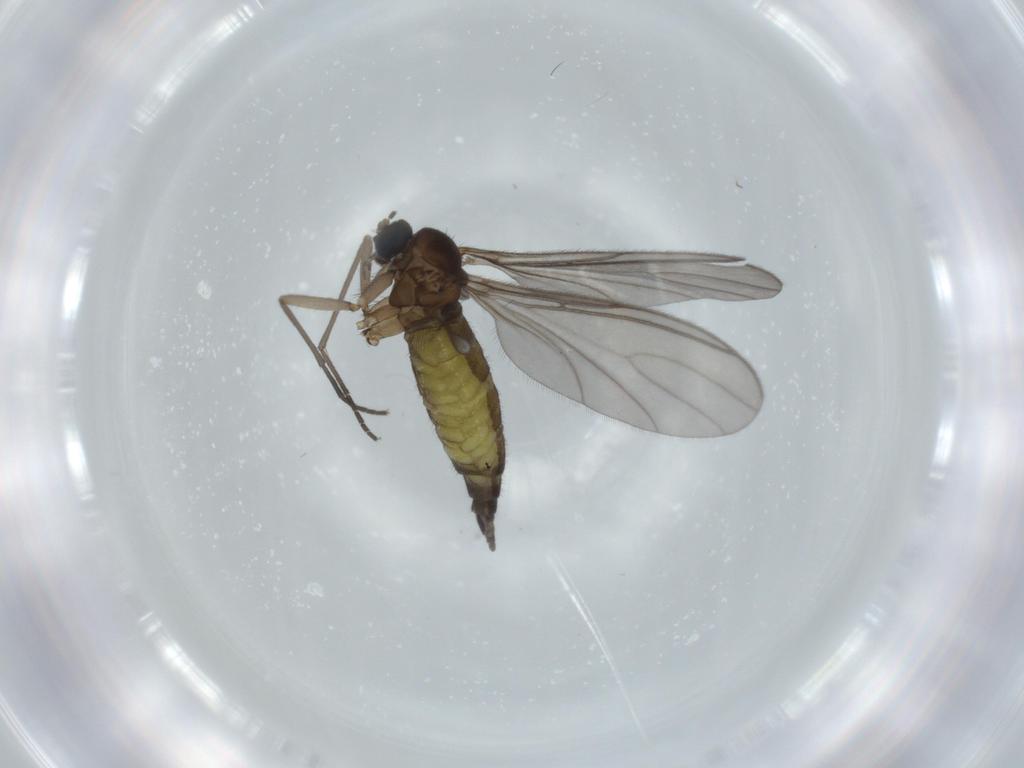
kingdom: Animalia
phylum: Arthropoda
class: Insecta
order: Diptera
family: Sciaridae
